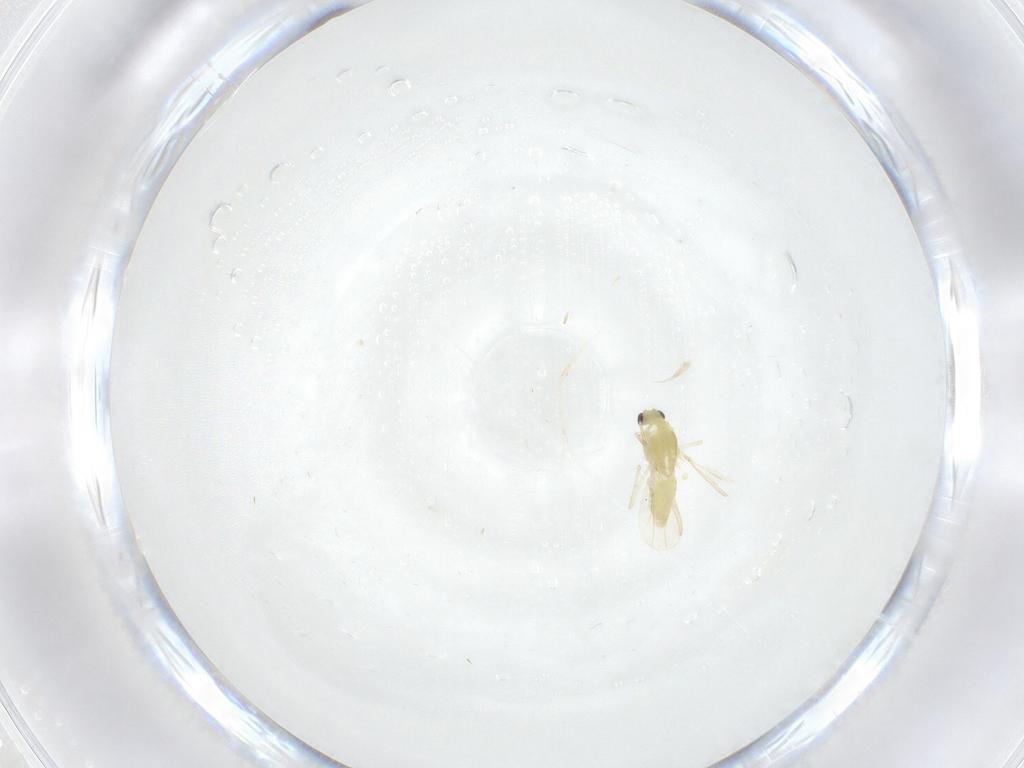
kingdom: Animalia
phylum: Arthropoda
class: Insecta
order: Diptera
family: Chironomidae
